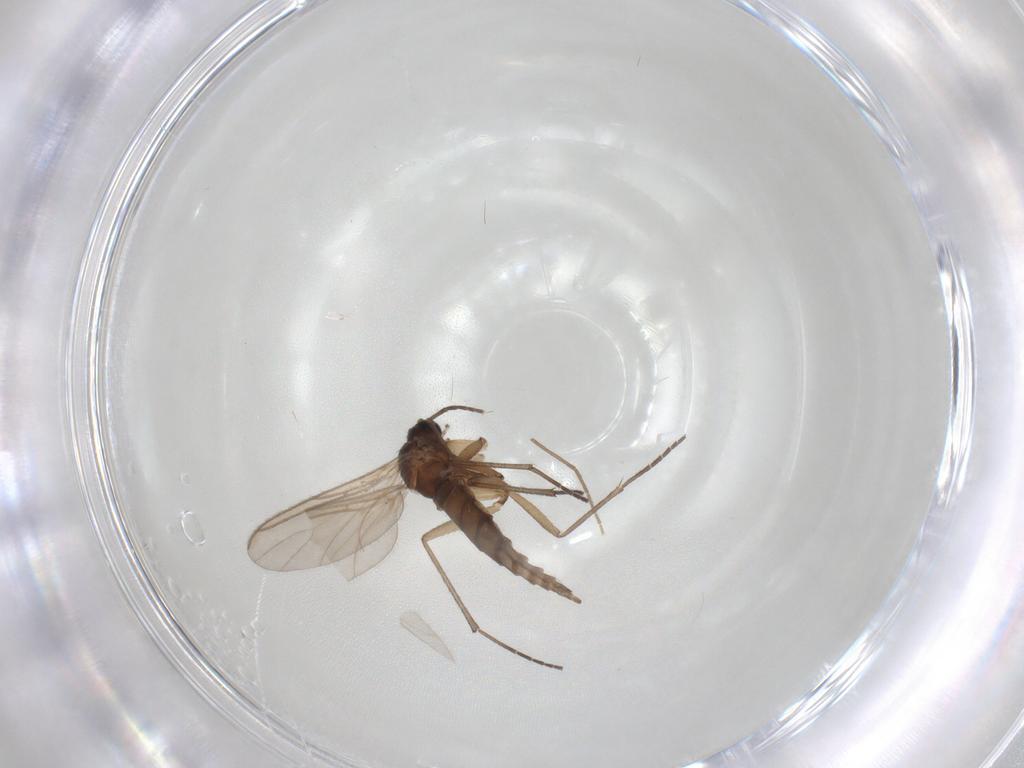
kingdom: Animalia
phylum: Arthropoda
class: Insecta
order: Diptera
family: Sciaridae
